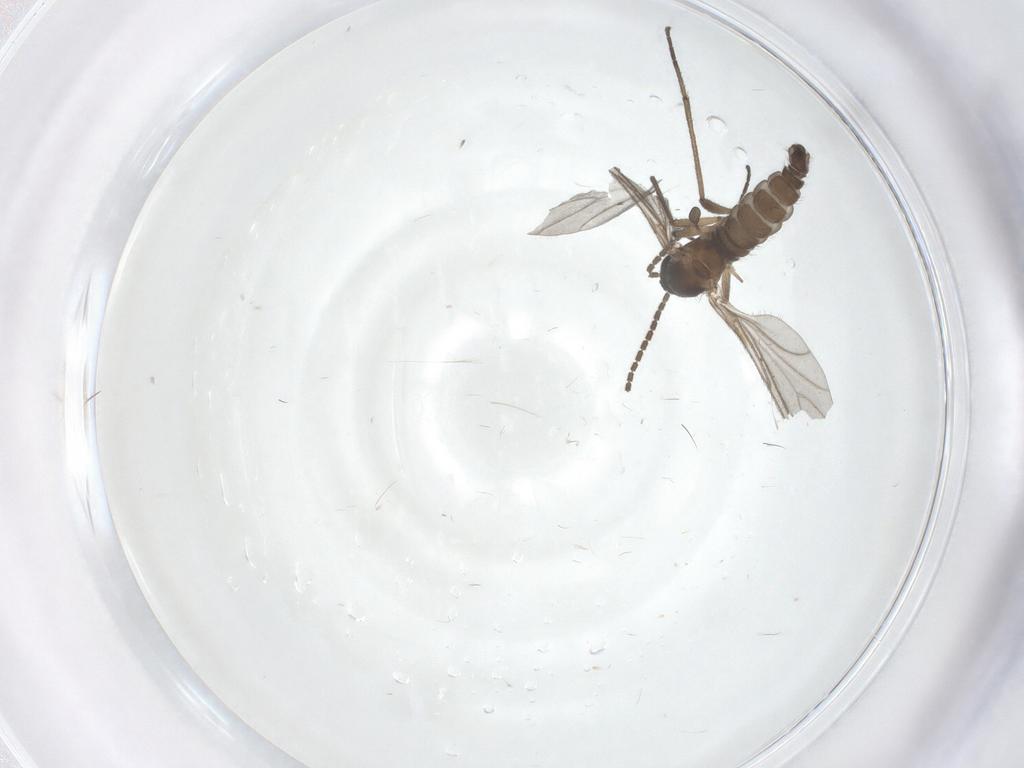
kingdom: Animalia
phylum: Arthropoda
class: Insecta
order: Diptera
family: Sciaridae
